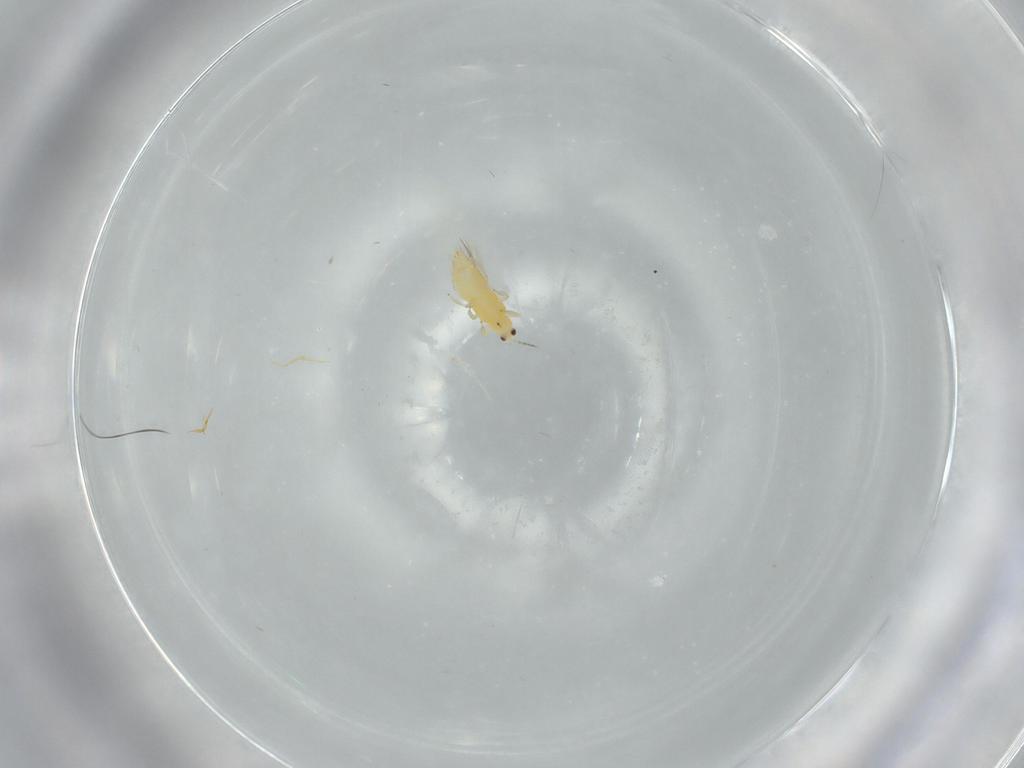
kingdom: Animalia
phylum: Arthropoda
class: Insecta
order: Thysanoptera
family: Thripidae
